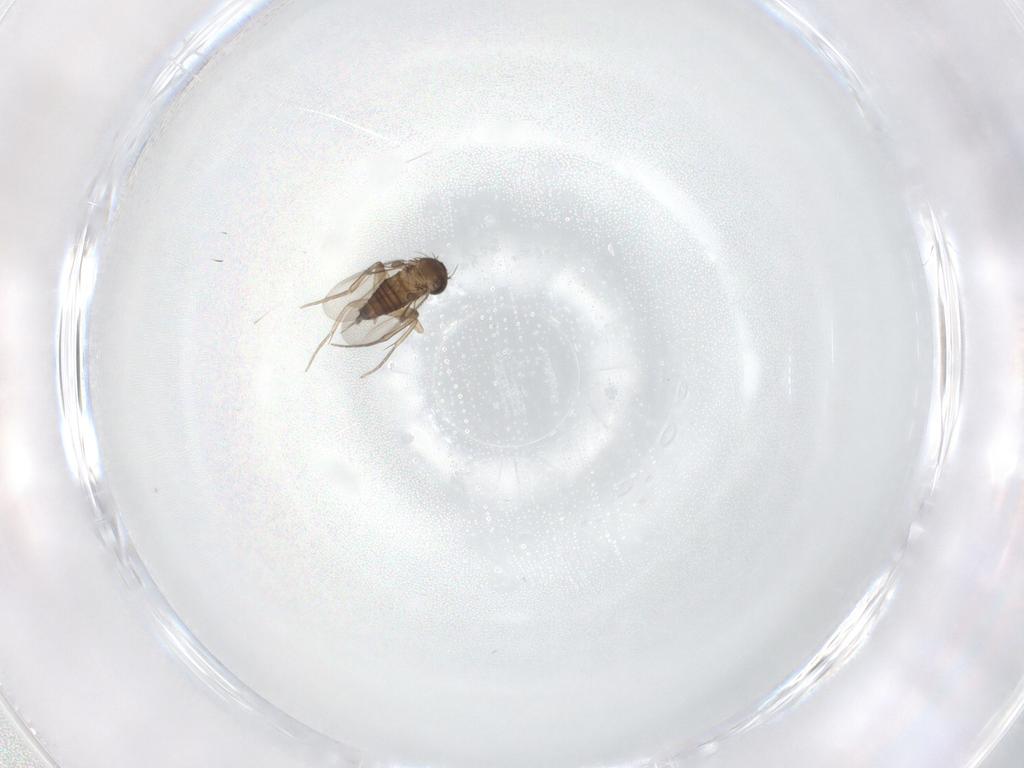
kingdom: Animalia
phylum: Arthropoda
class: Insecta
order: Diptera
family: Phoridae
